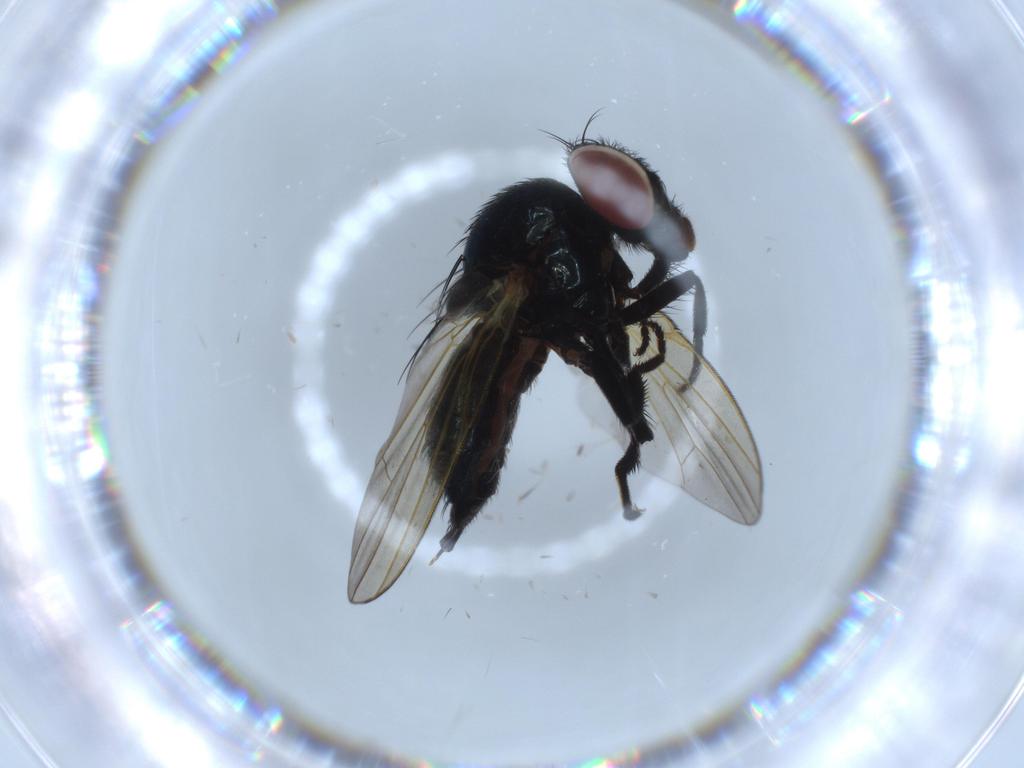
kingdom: Animalia
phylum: Arthropoda
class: Insecta
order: Diptera
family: Lonchaeidae
